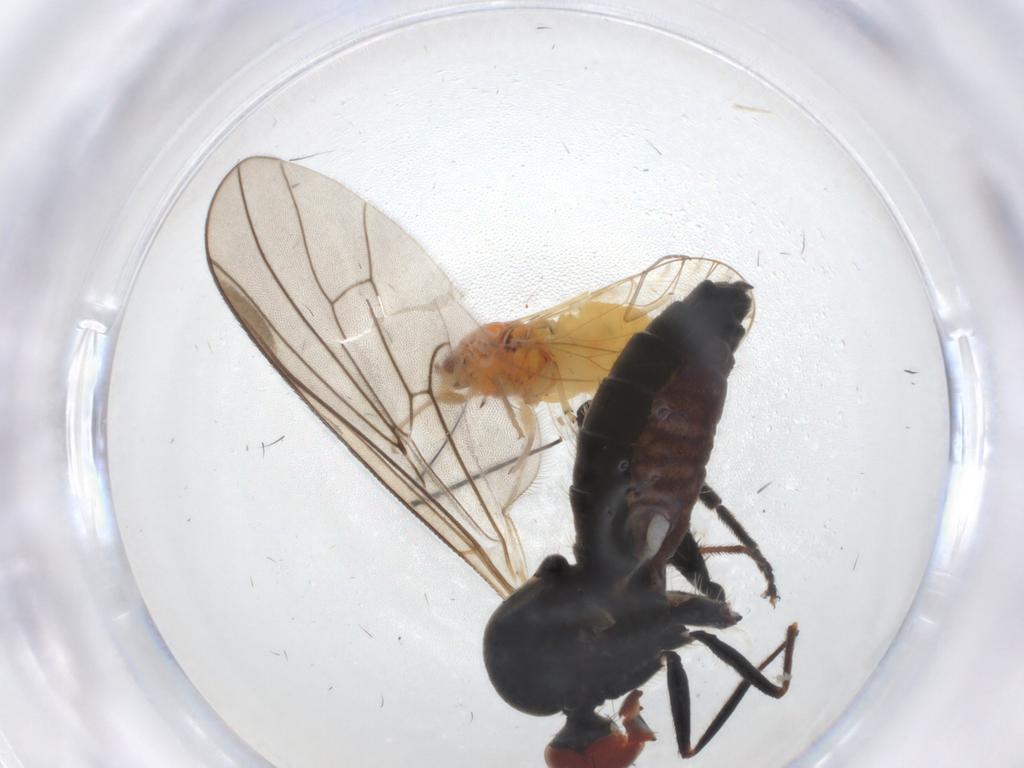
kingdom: Animalia
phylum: Arthropoda
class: Insecta
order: Diptera
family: Hybotidae
